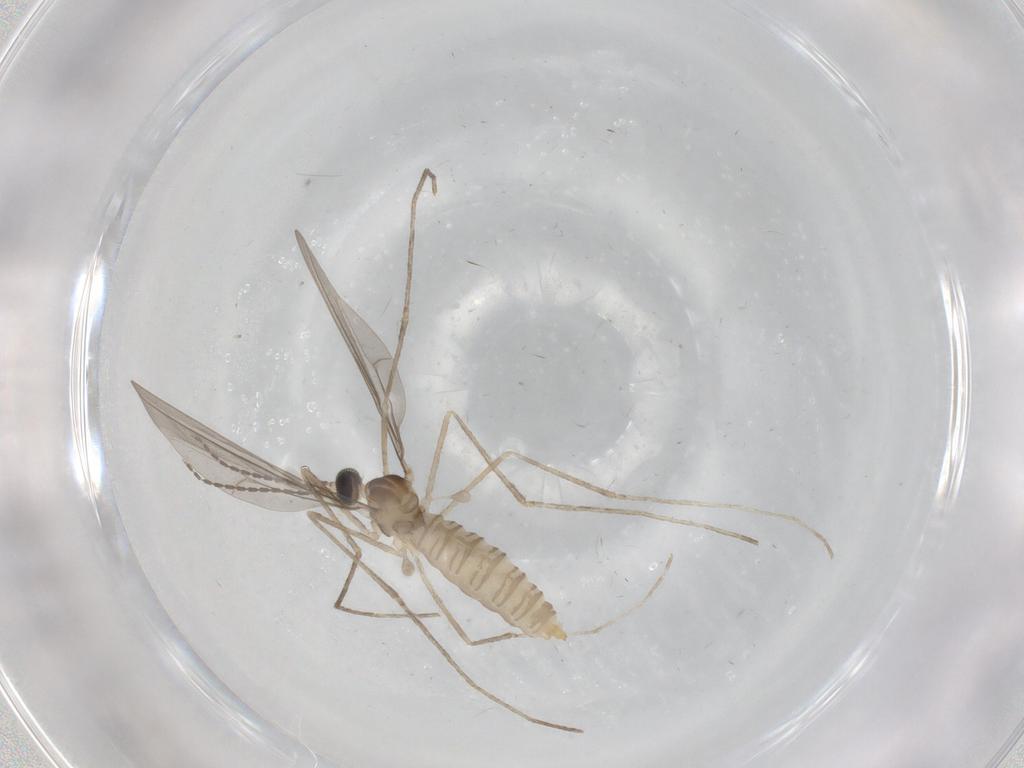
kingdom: Animalia
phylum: Arthropoda
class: Insecta
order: Diptera
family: Cecidomyiidae
